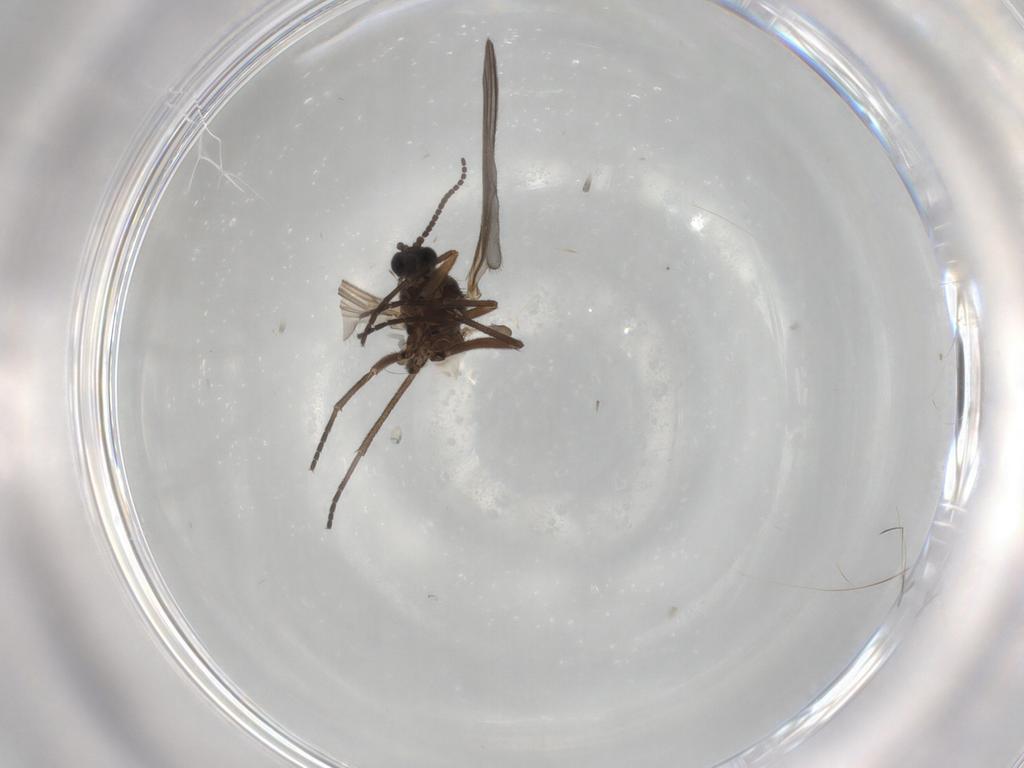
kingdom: Animalia
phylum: Arthropoda
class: Insecta
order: Diptera
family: Sciaridae
